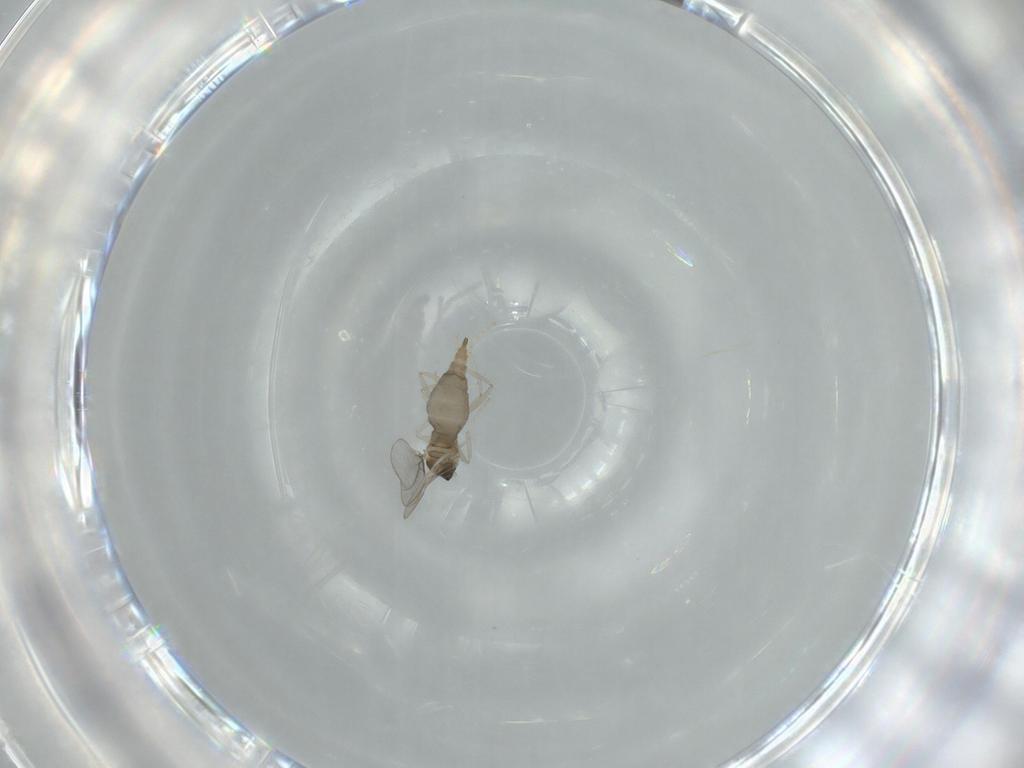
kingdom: Animalia
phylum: Arthropoda
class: Insecta
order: Diptera
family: Cecidomyiidae
